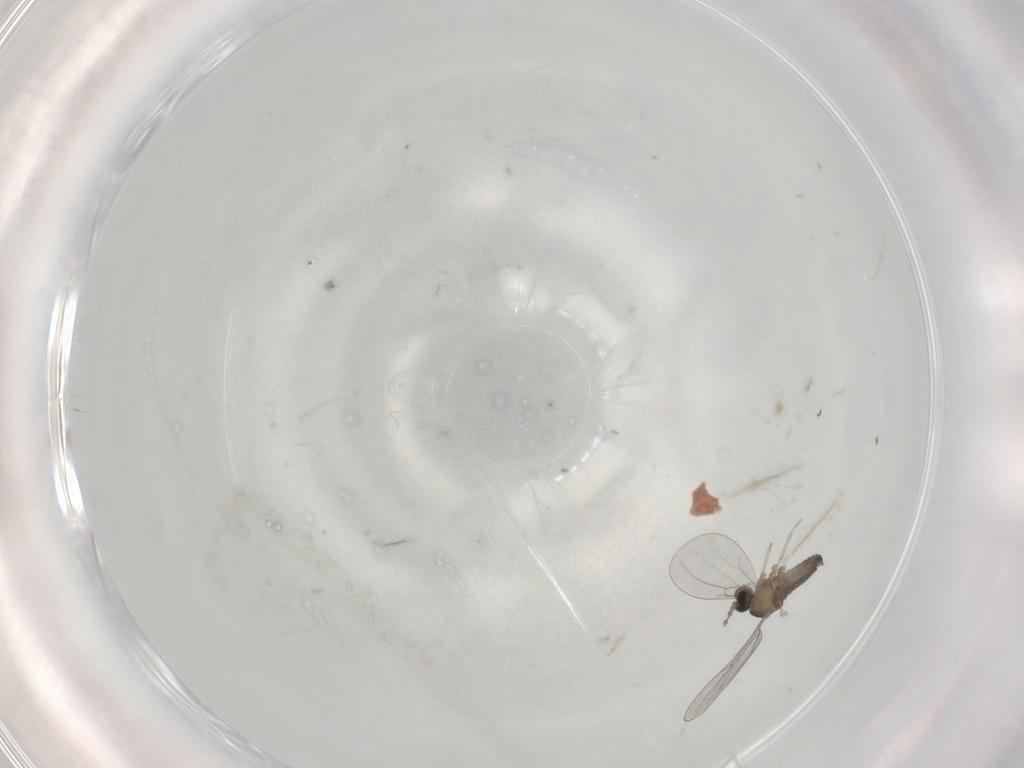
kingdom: Animalia
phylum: Arthropoda
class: Insecta
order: Diptera
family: Cecidomyiidae
